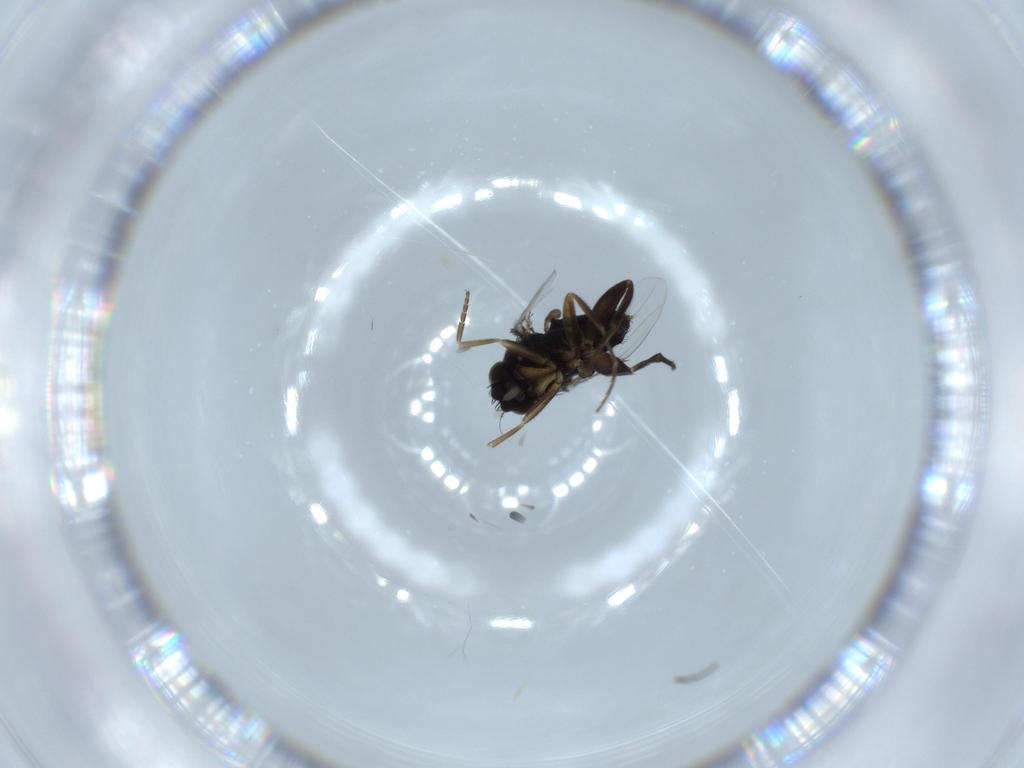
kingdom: Animalia
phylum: Arthropoda
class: Insecta
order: Diptera
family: Phoridae
